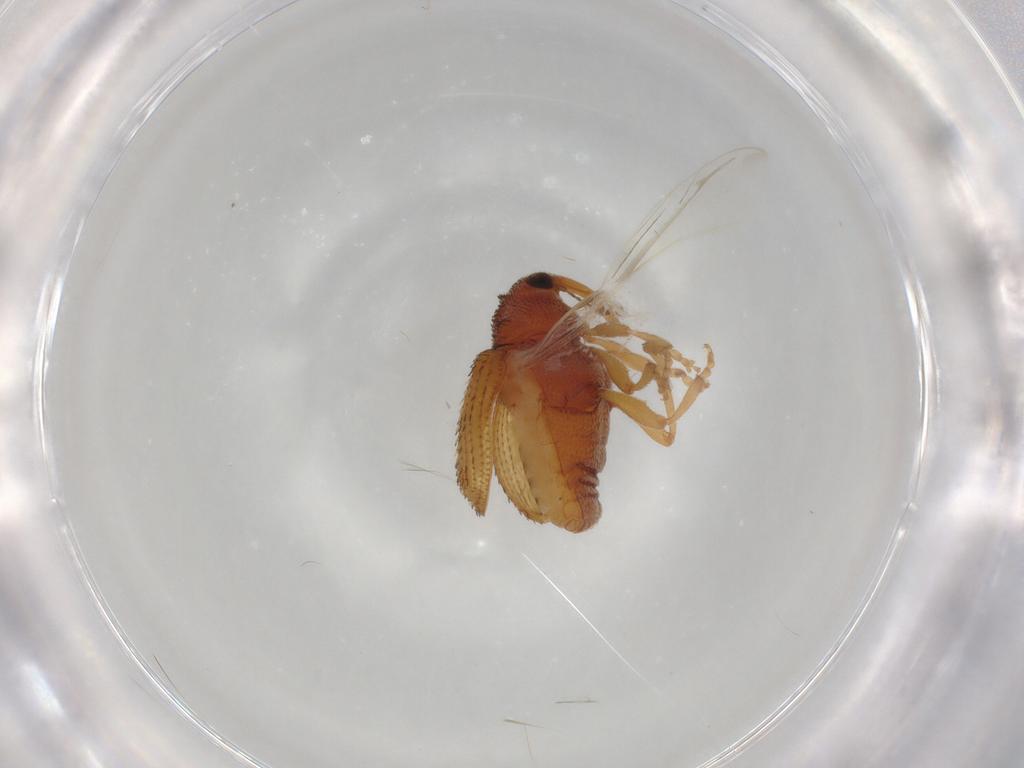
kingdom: Animalia
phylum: Arthropoda
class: Insecta
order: Coleoptera
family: Curculionidae
